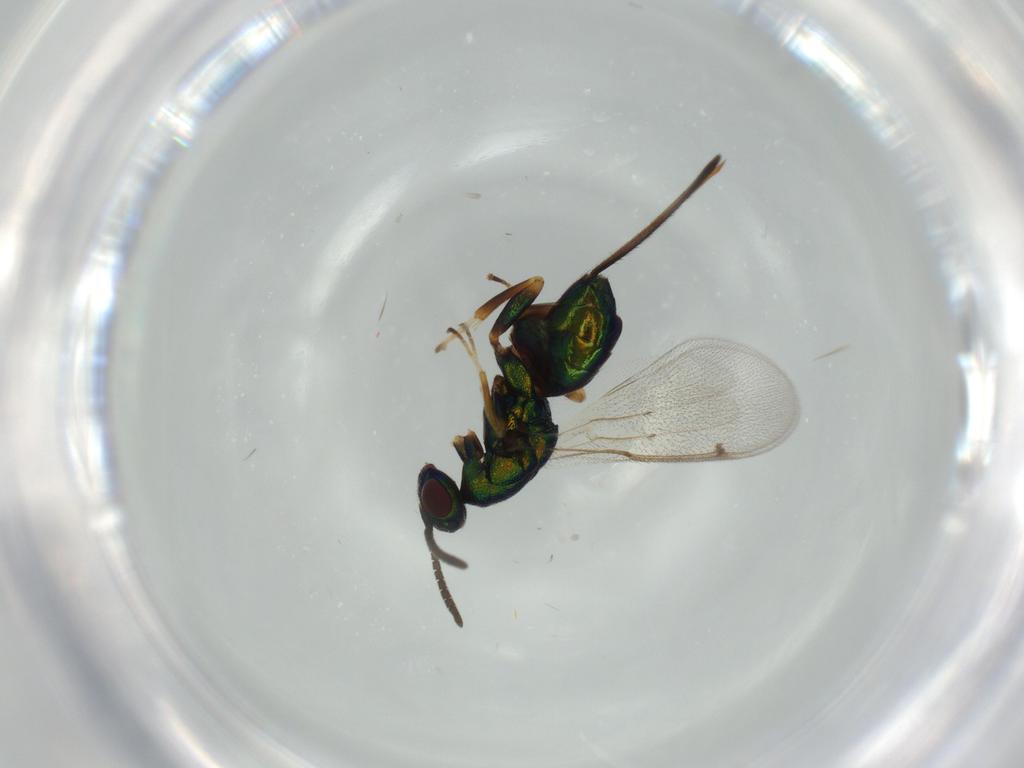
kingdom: Animalia
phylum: Arthropoda
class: Insecta
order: Hymenoptera
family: Torymidae
